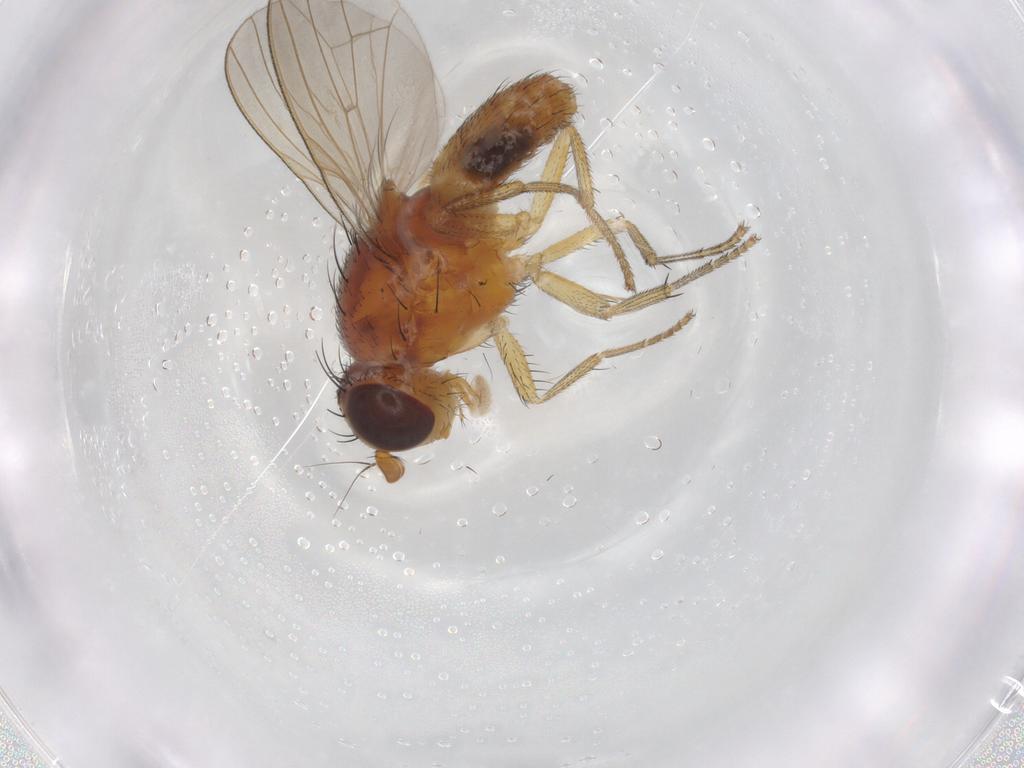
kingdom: Animalia
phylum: Arthropoda
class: Insecta
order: Diptera
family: Lauxaniidae
